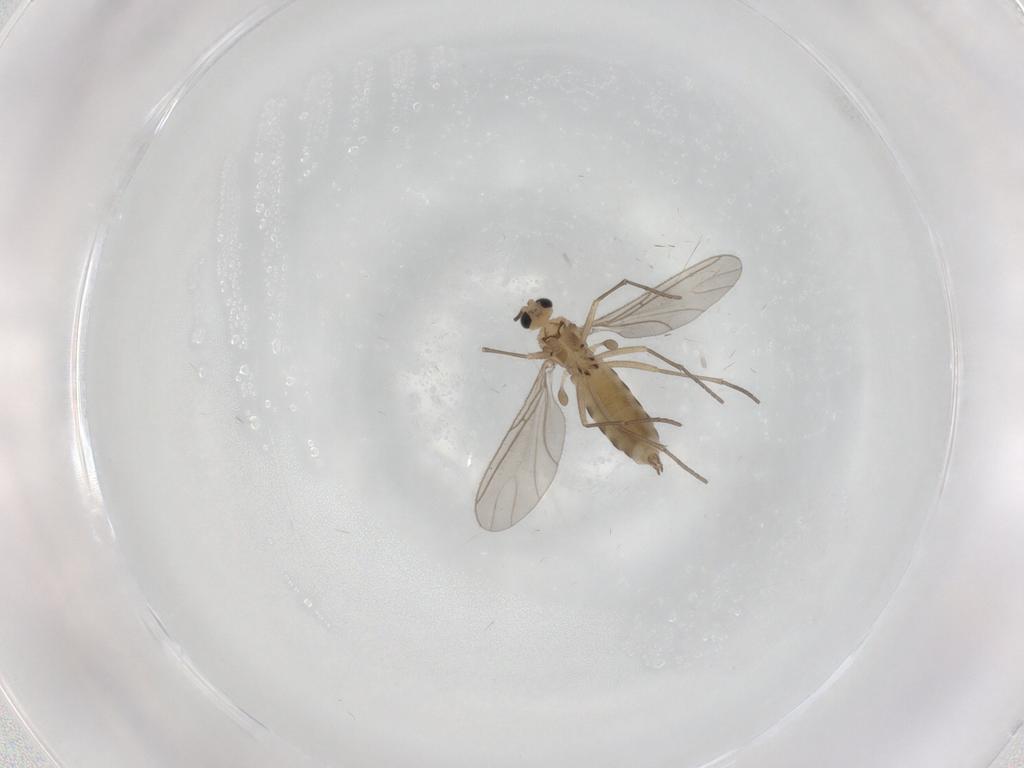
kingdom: Animalia
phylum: Arthropoda
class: Insecta
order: Diptera
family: Sciaridae
